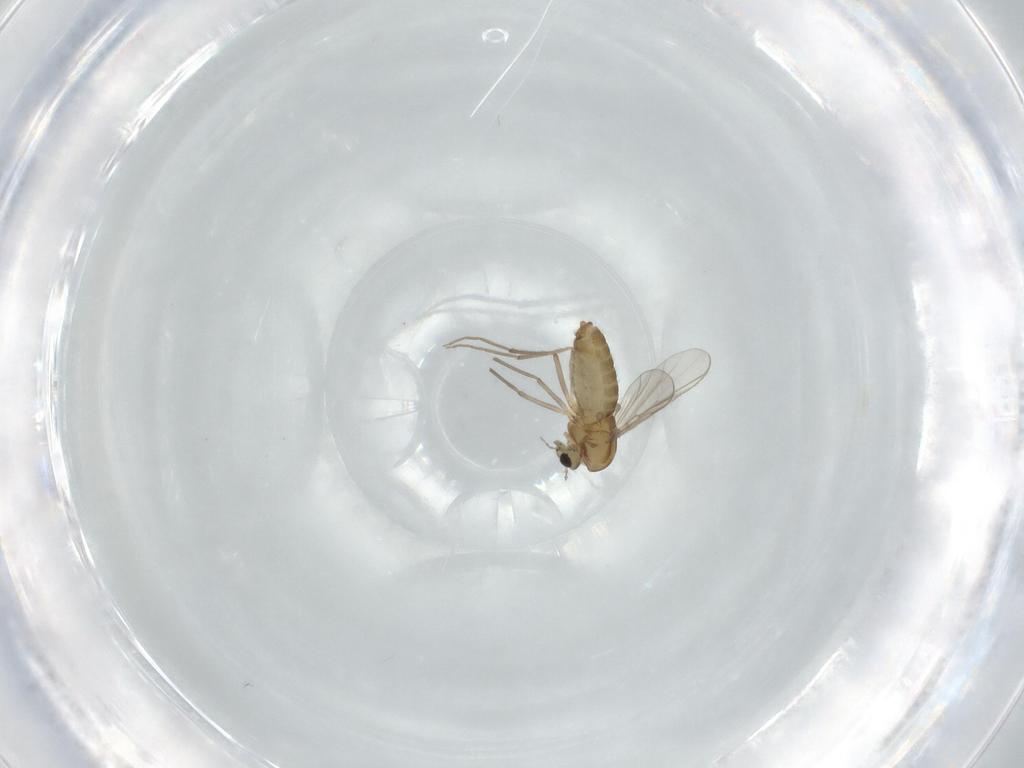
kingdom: Animalia
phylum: Arthropoda
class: Insecta
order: Diptera
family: Chironomidae
